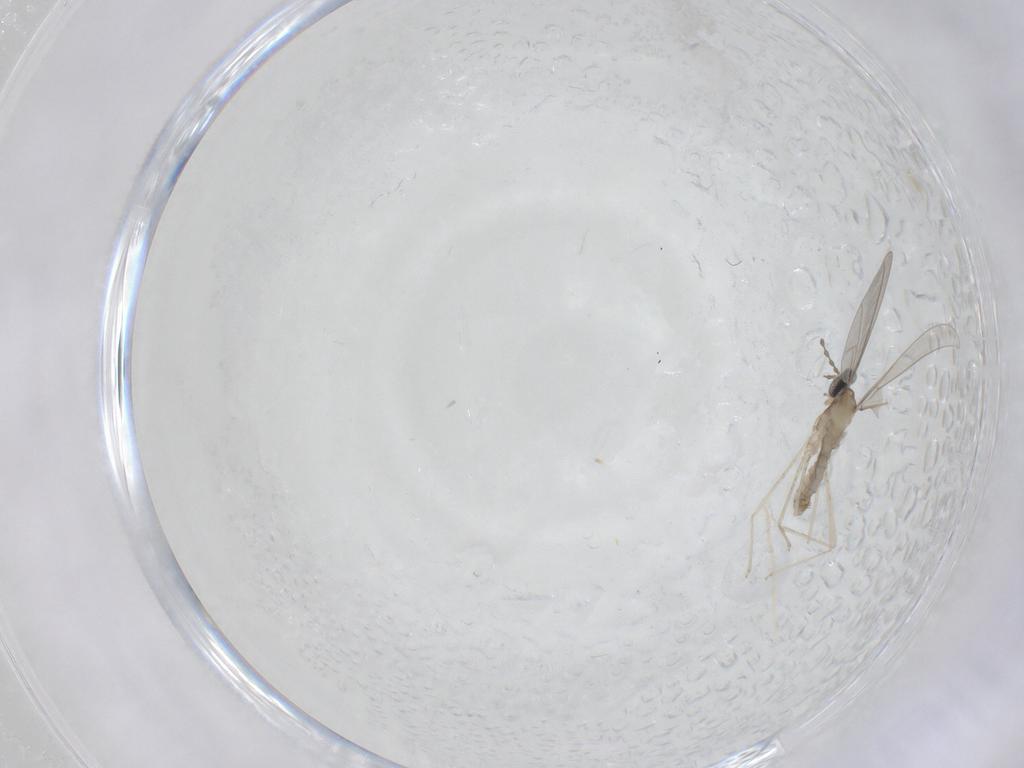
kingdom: Animalia
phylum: Arthropoda
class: Insecta
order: Diptera
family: Cecidomyiidae
